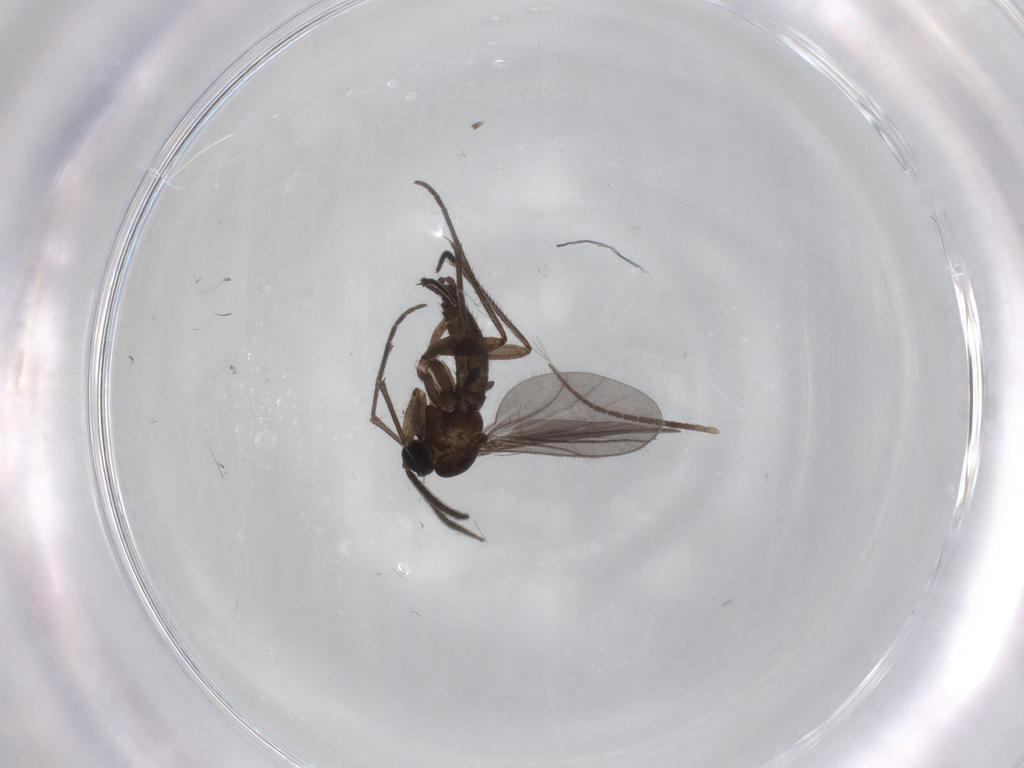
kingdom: Animalia
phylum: Arthropoda
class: Insecta
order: Diptera
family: Sciaridae
